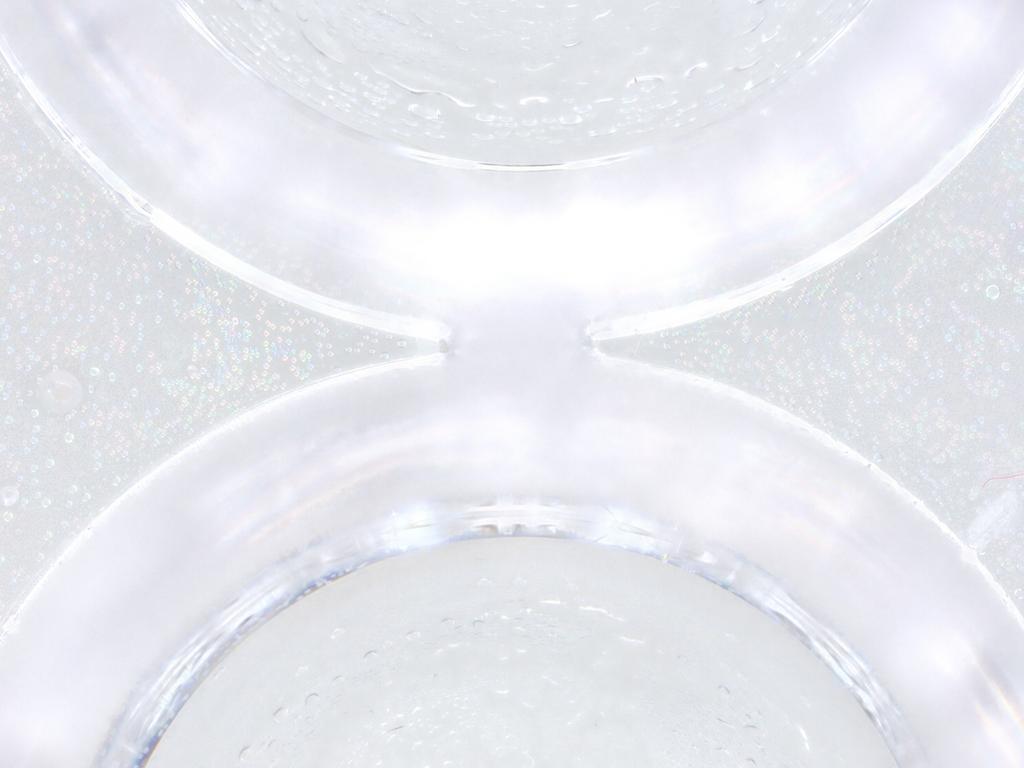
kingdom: Animalia
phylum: Arthropoda
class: Insecta
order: Diptera
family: Chironomidae
